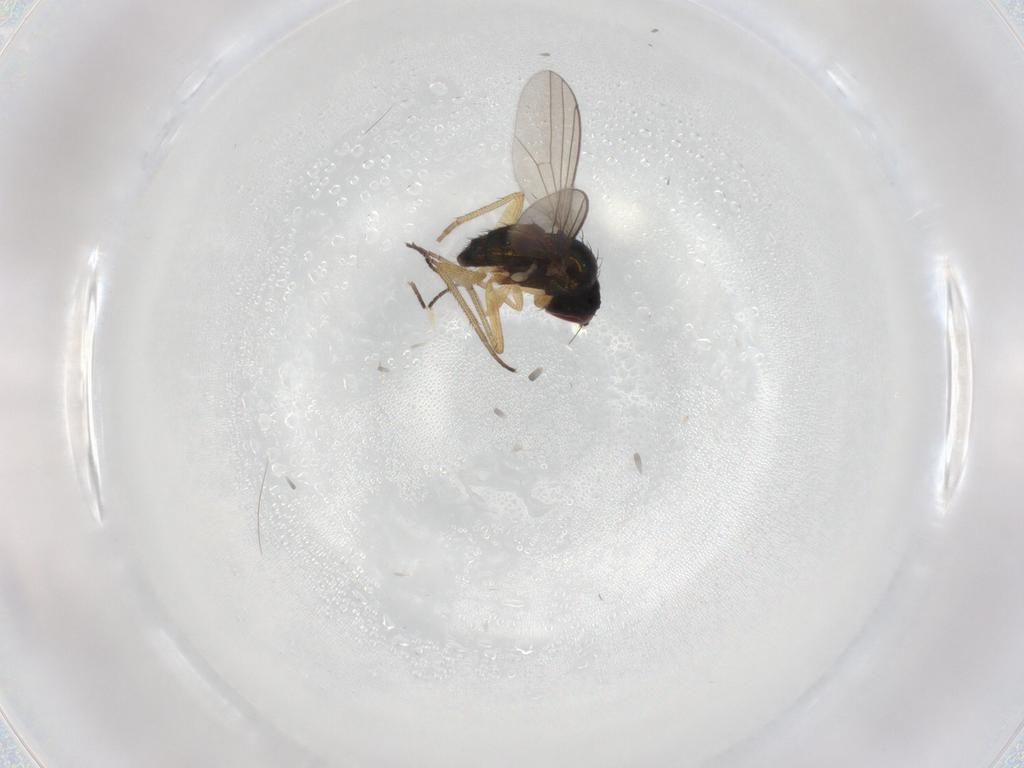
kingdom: Animalia
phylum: Arthropoda
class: Insecta
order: Diptera
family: Dolichopodidae
